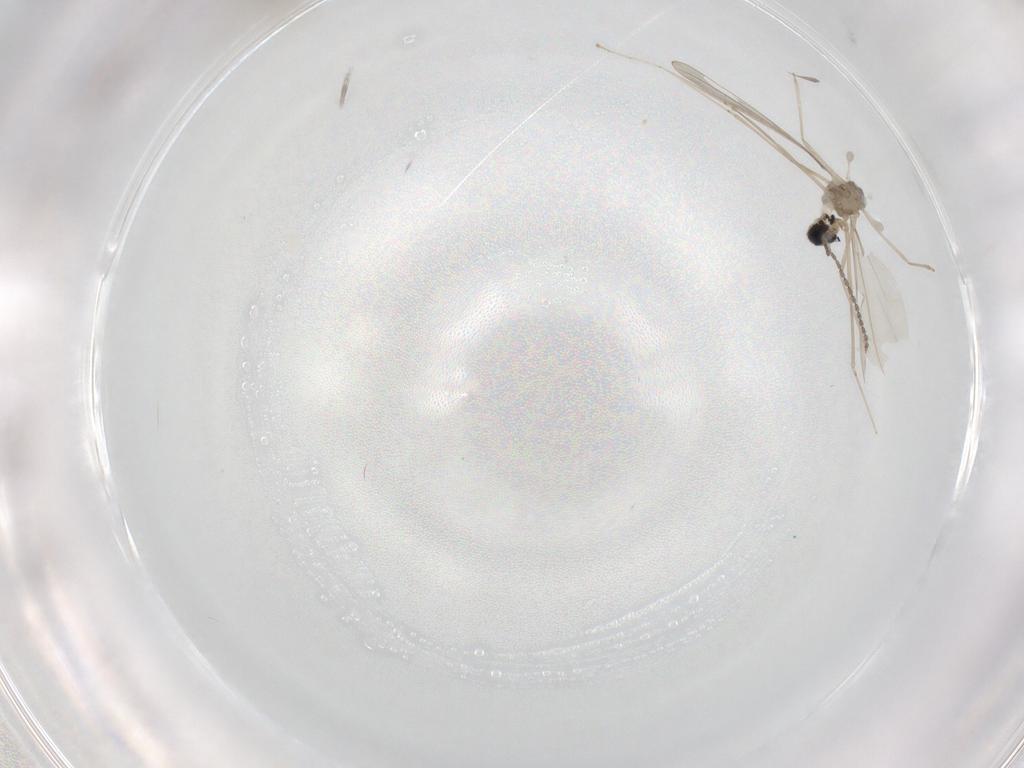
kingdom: Animalia
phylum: Arthropoda
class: Insecta
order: Diptera
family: Cecidomyiidae
